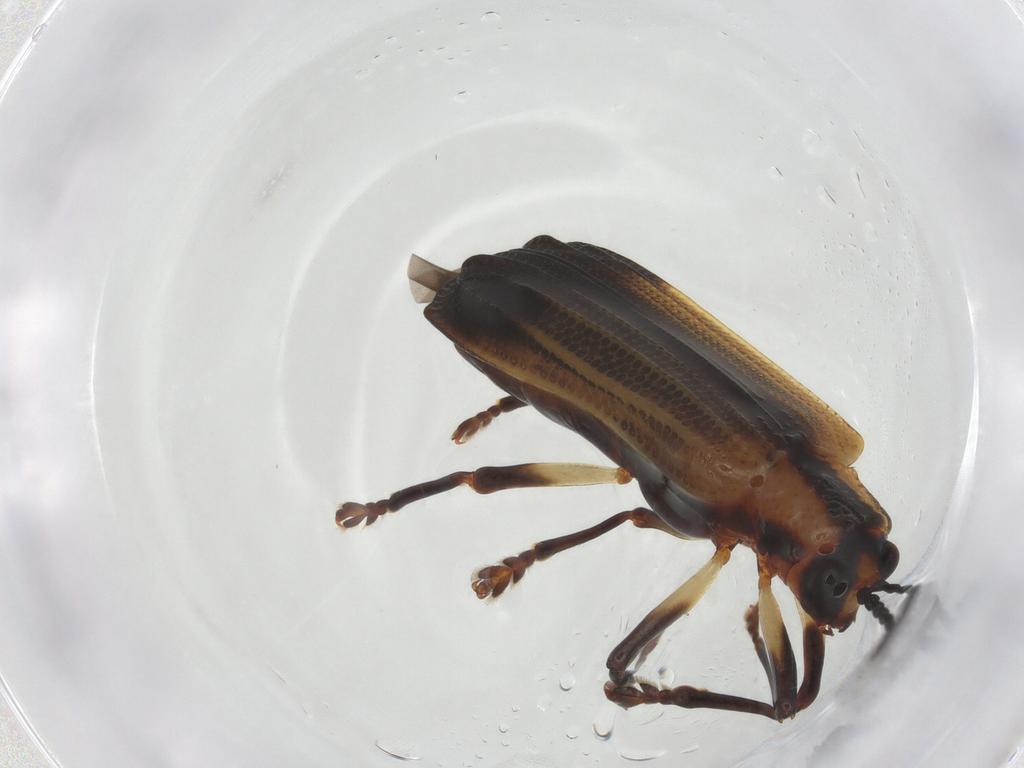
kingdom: Animalia
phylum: Arthropoda
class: Insecta
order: Coleoptera
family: Chrysomelidae
